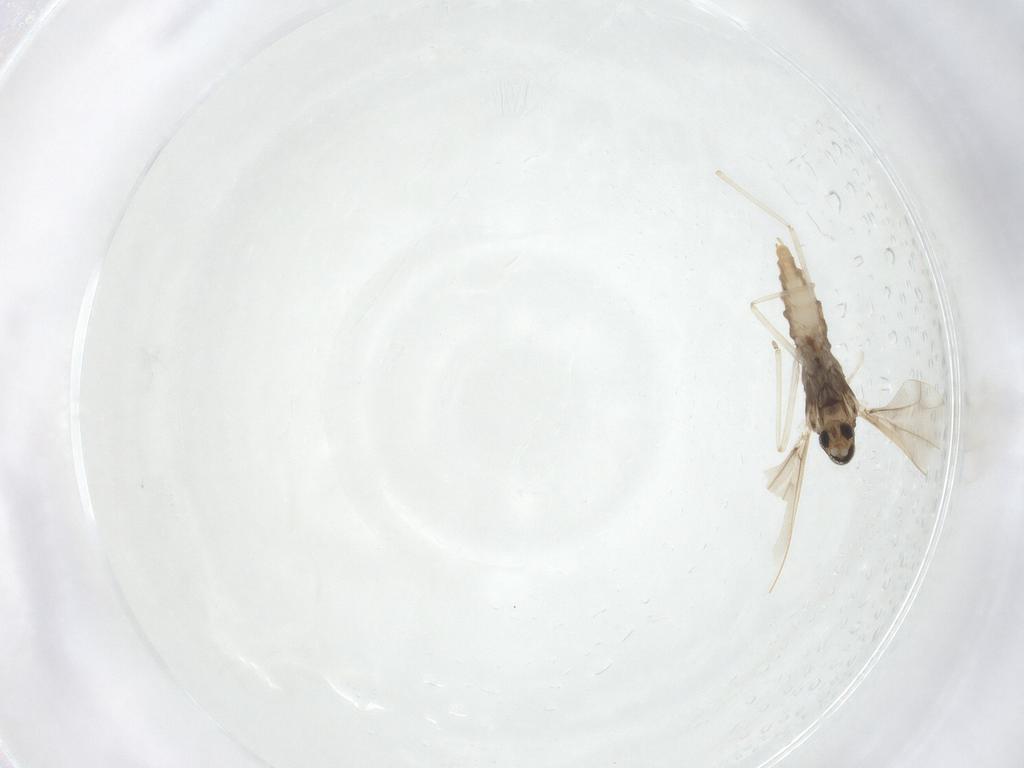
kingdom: Animalia
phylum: Arthropoda
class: Insecta
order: Diptera
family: Cecidomyiidae
